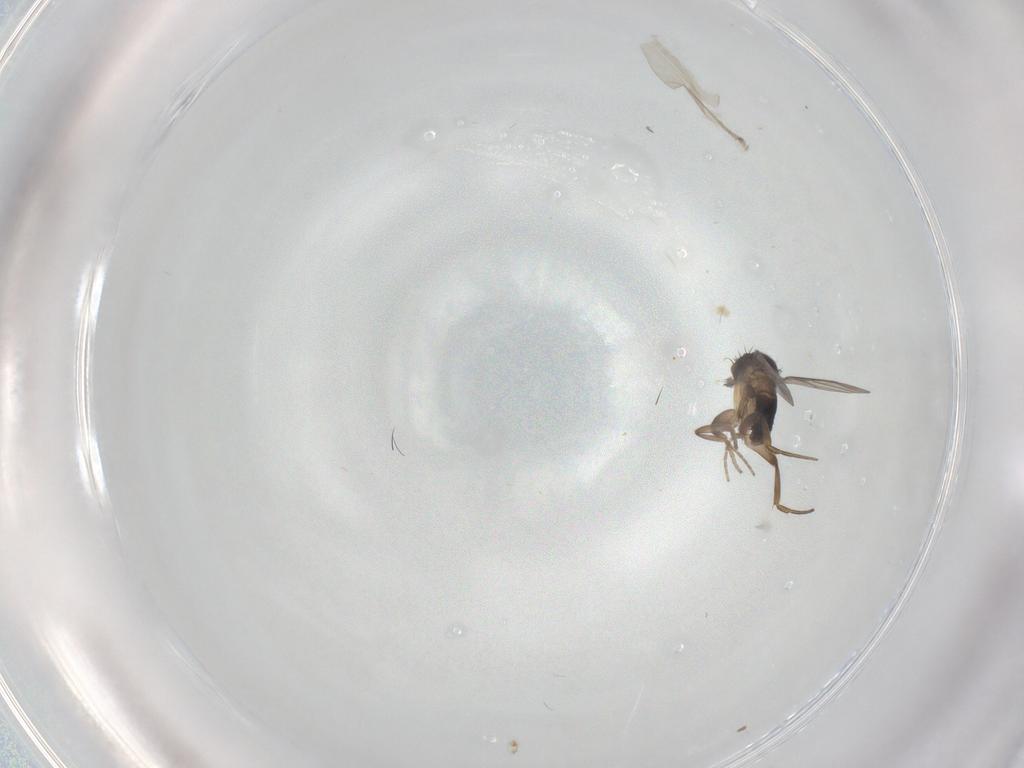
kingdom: Animalia
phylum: Arthropoda
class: Insecta
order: Diptera
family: Phoridae
